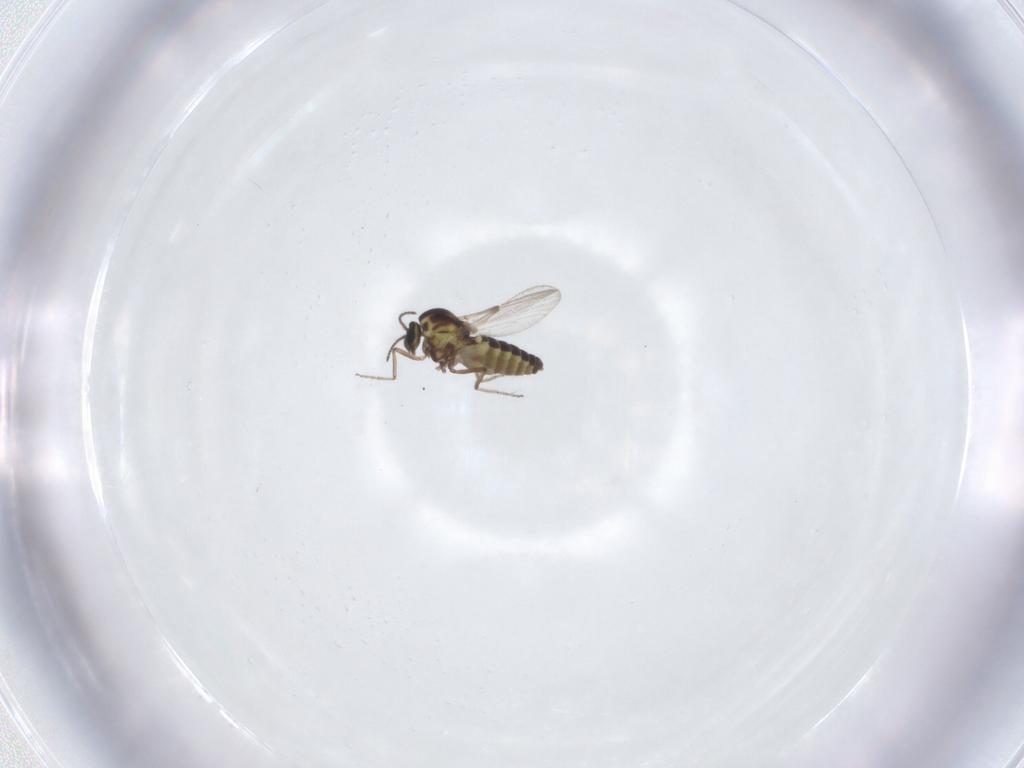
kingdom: Animalia
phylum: Arthropoda
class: Insecta
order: Diptera
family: Ceratopogonidae
